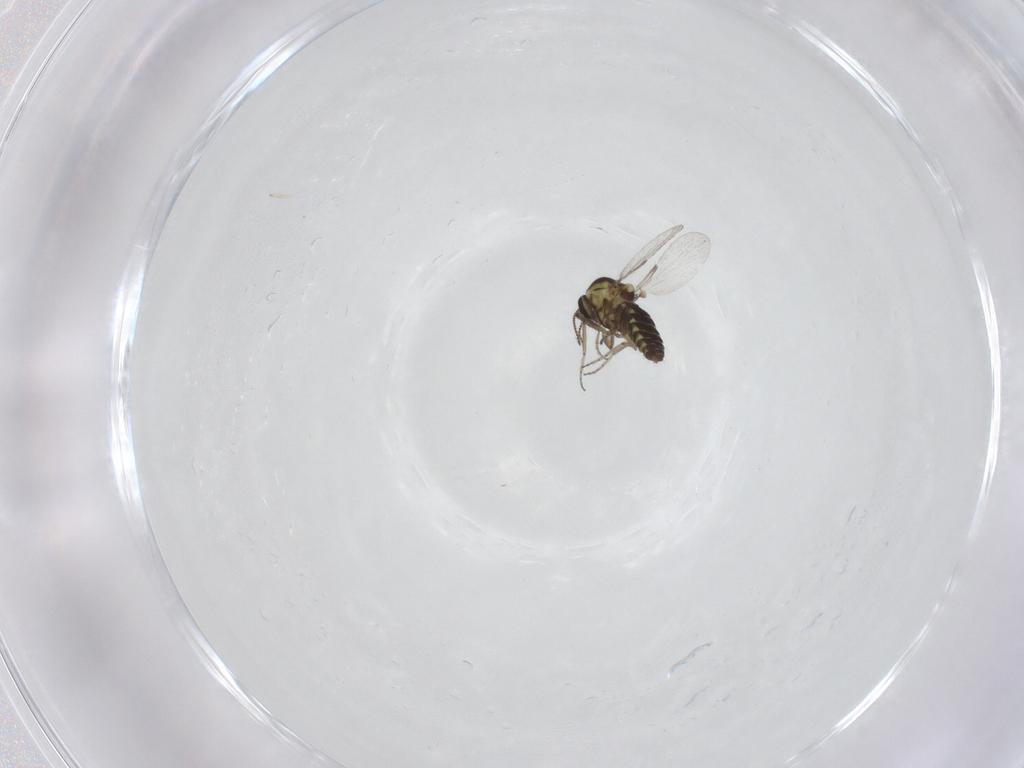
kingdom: Animalia
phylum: Arthropoda
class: Insecta
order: Diptera
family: Ceratopogonidae
